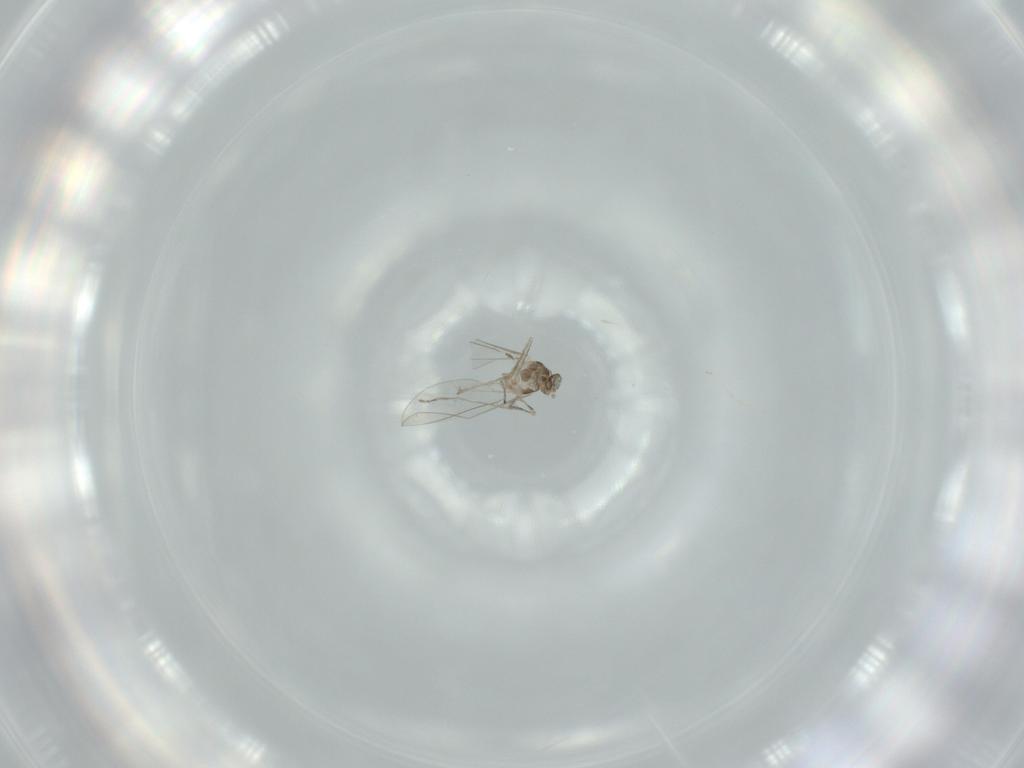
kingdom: Animalia
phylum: Arthropoda
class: Insecta
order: Diptera
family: Cecidomyiidae
